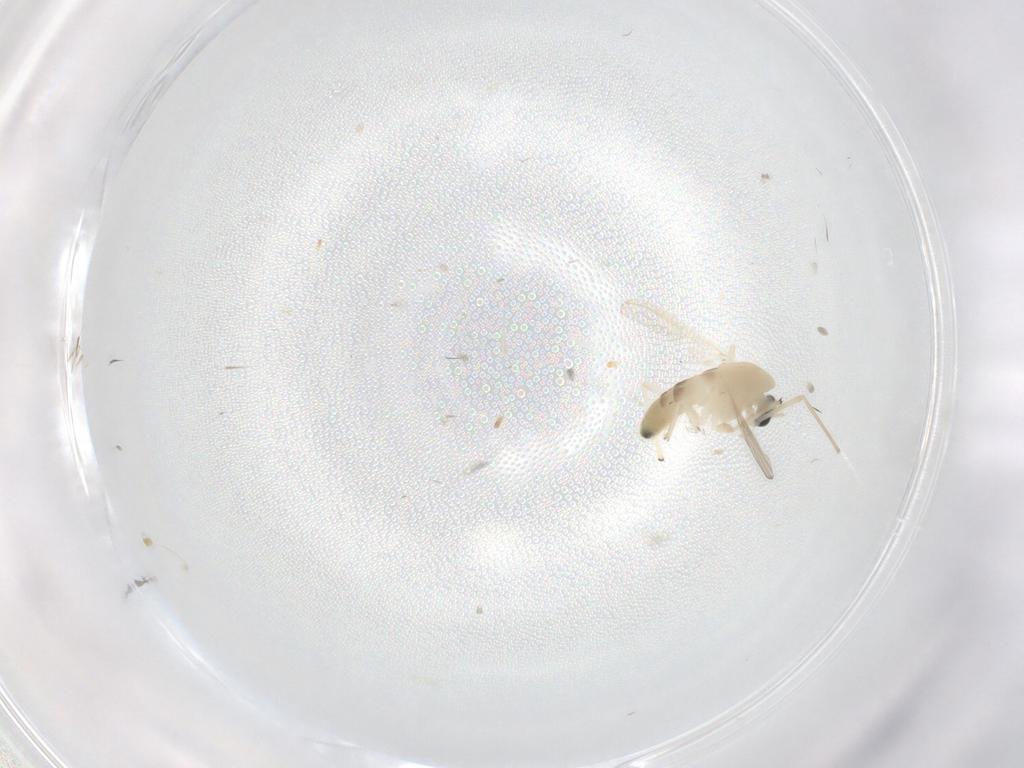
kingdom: Animalia
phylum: Arthropoda
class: Insecta
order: Diptera
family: Chironomidae
